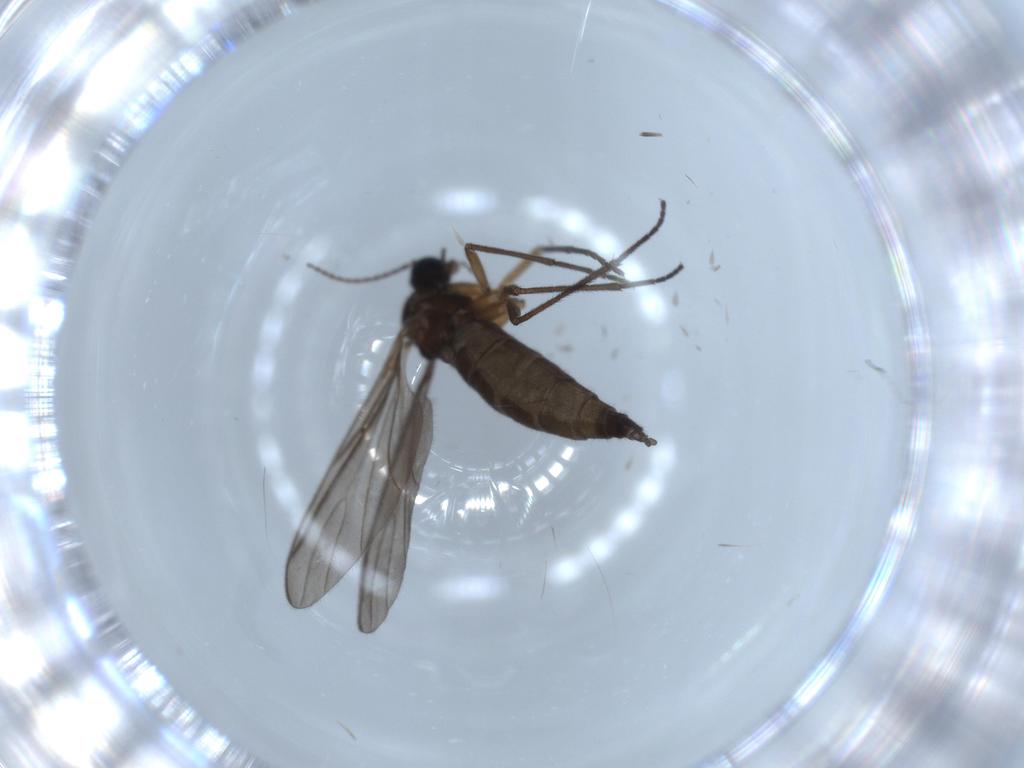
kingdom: Animalia
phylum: Arthropoda
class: Insecta
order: Diptera
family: Sciaridae
